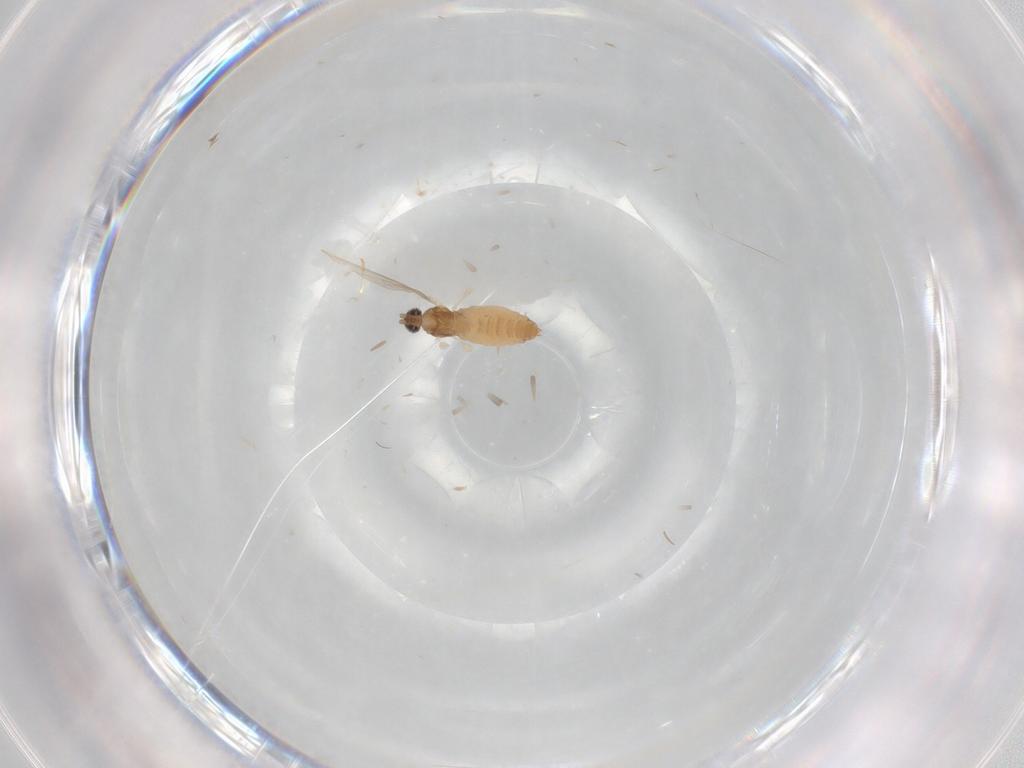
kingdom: Animalia
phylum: Arthropoda
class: Insecta
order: Diptera
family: Cecidomyiidae
